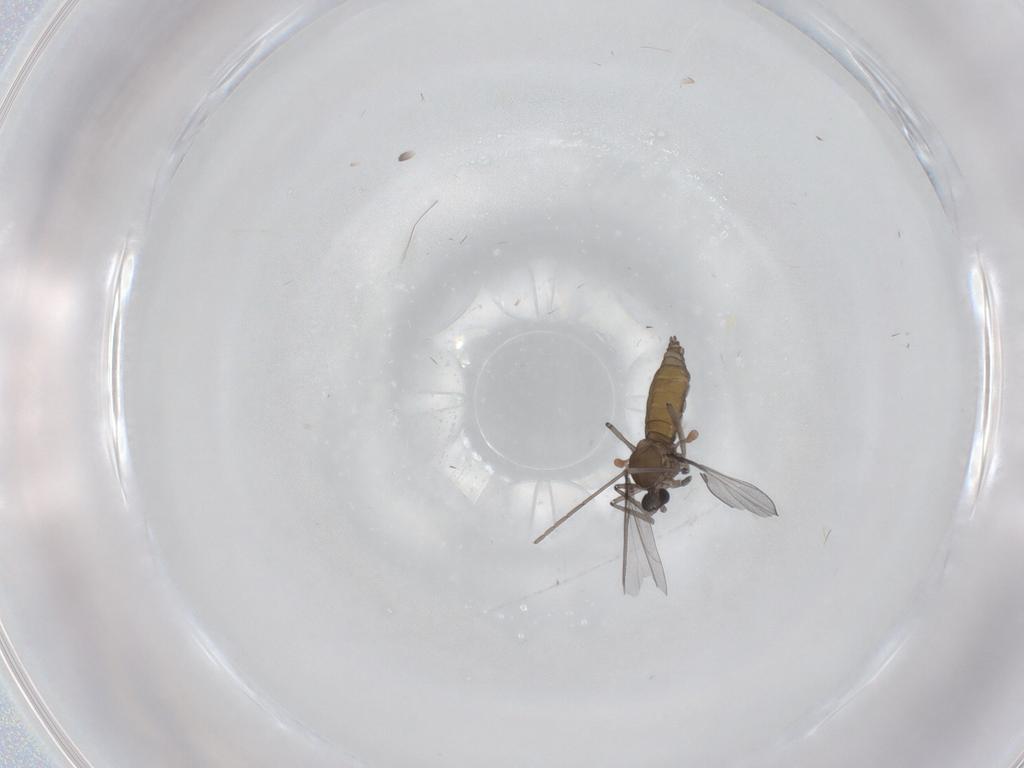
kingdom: Animalia
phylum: Arthropoda
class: Insecta
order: Diptera
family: Cecidomyiidae
